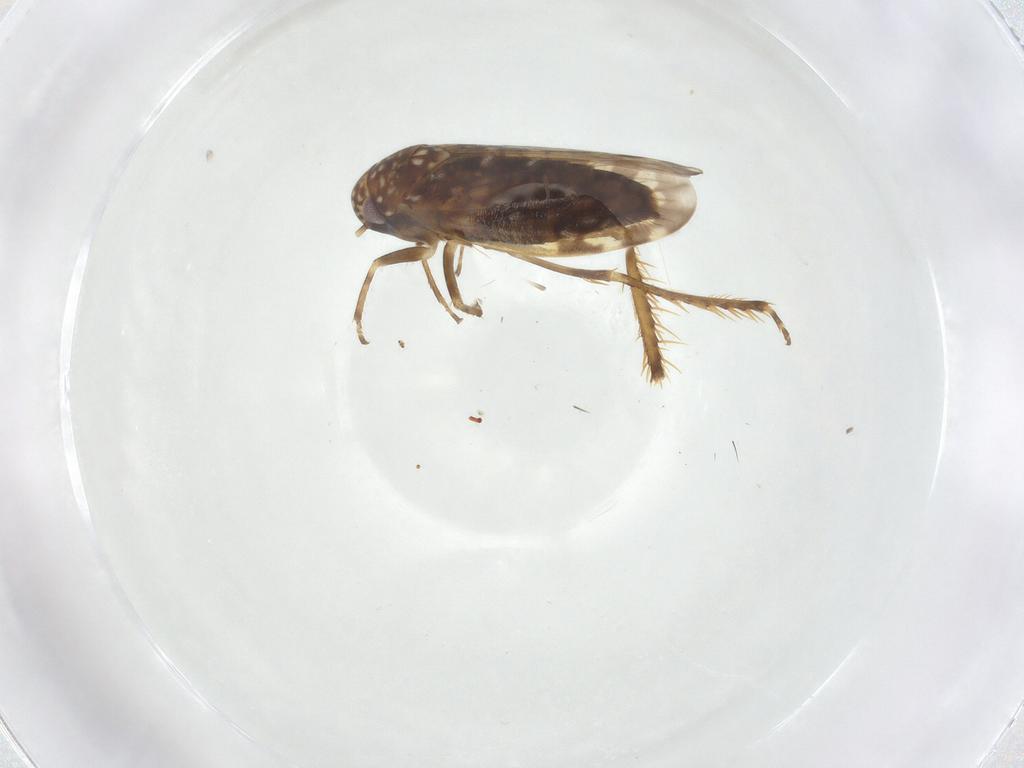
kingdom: Animalia
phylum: Arthropoda
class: Insecta
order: Hemiptera
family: Cicadellidae
